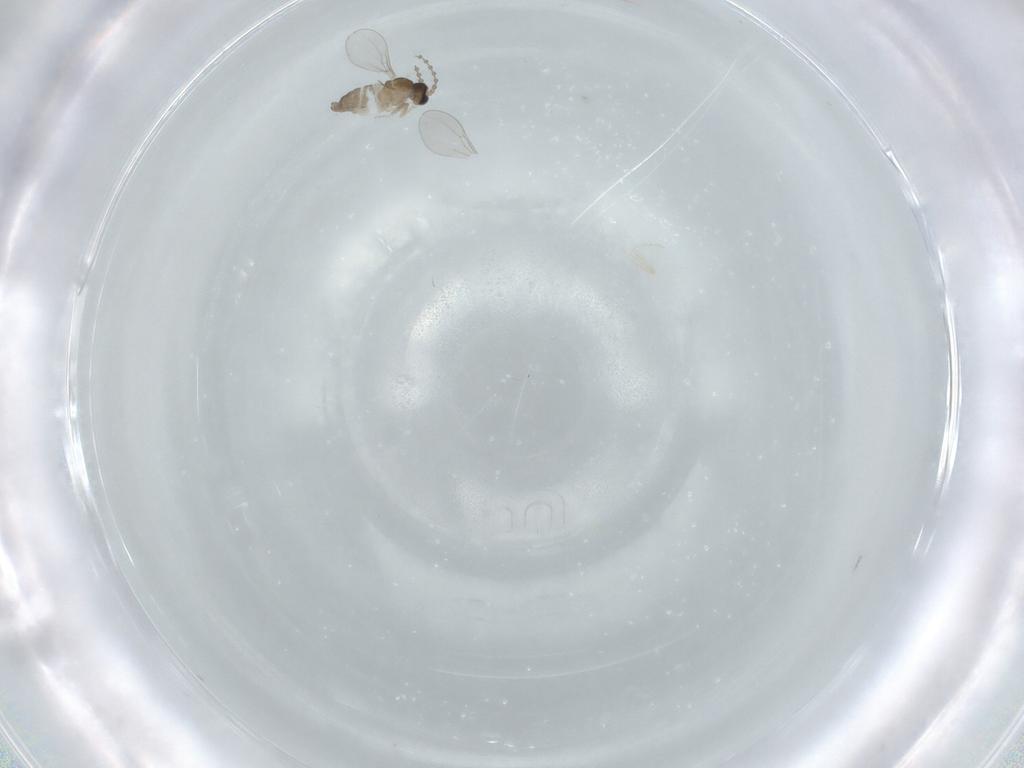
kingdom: Animalia
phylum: Arthropoda
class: Insecta
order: Diptera
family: Cecidomyiidae
